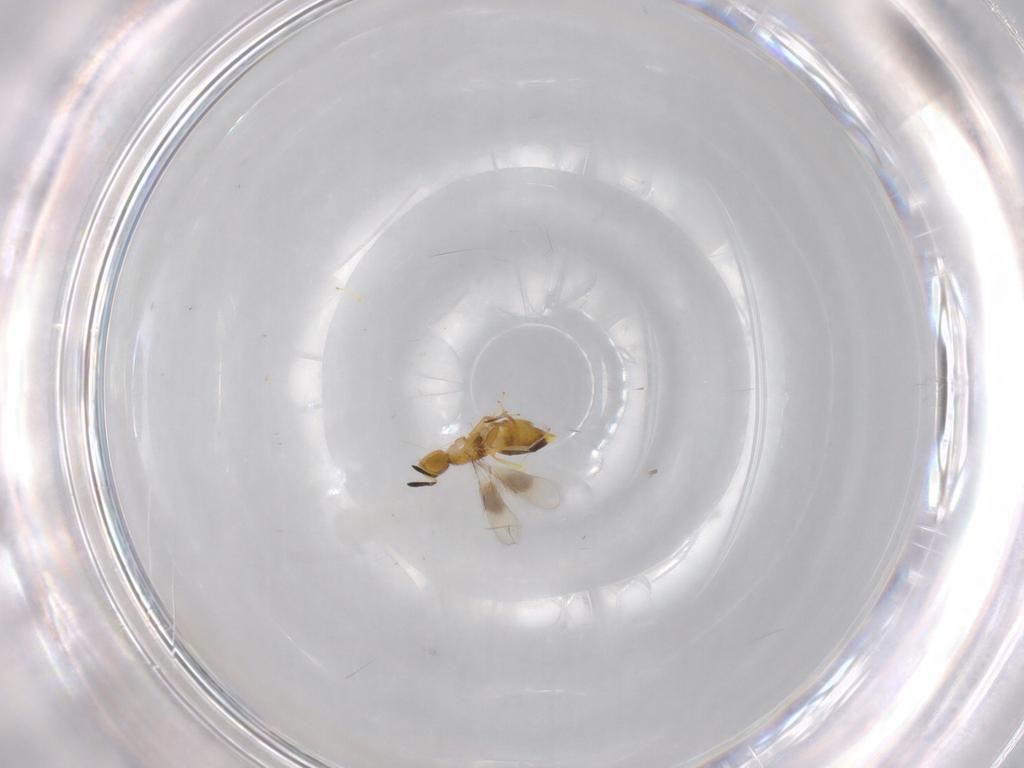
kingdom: Animalia
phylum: Arthropoda
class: Insecta
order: Hymenoptera
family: Encyrtidae
